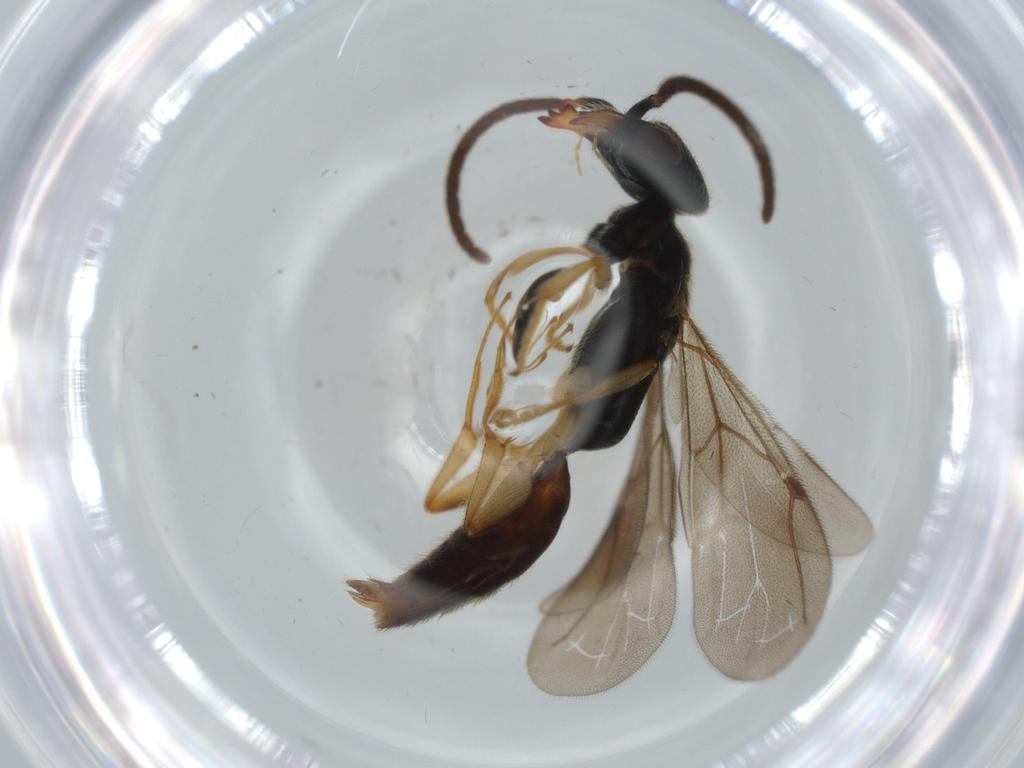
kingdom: Animalia
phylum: Arthropoda
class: Insecta
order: Hymenoptera
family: Bethylidae
